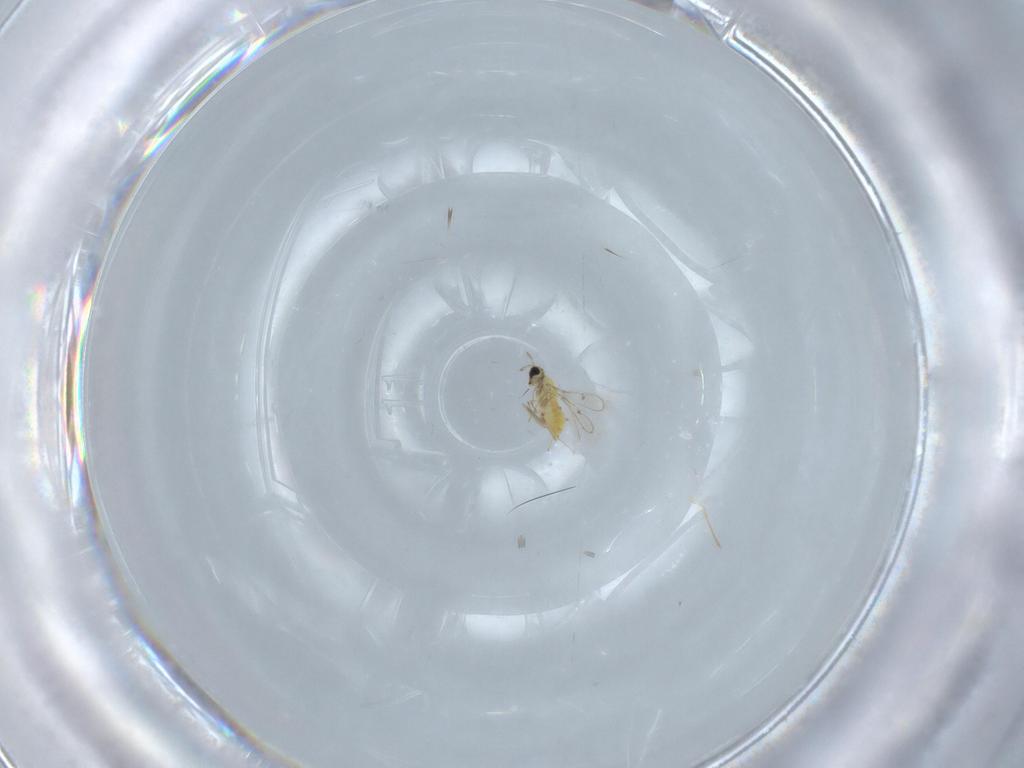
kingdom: Animalia
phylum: Arthropoda
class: Insecta
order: Hymenoptera
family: Trichogrammatidae
